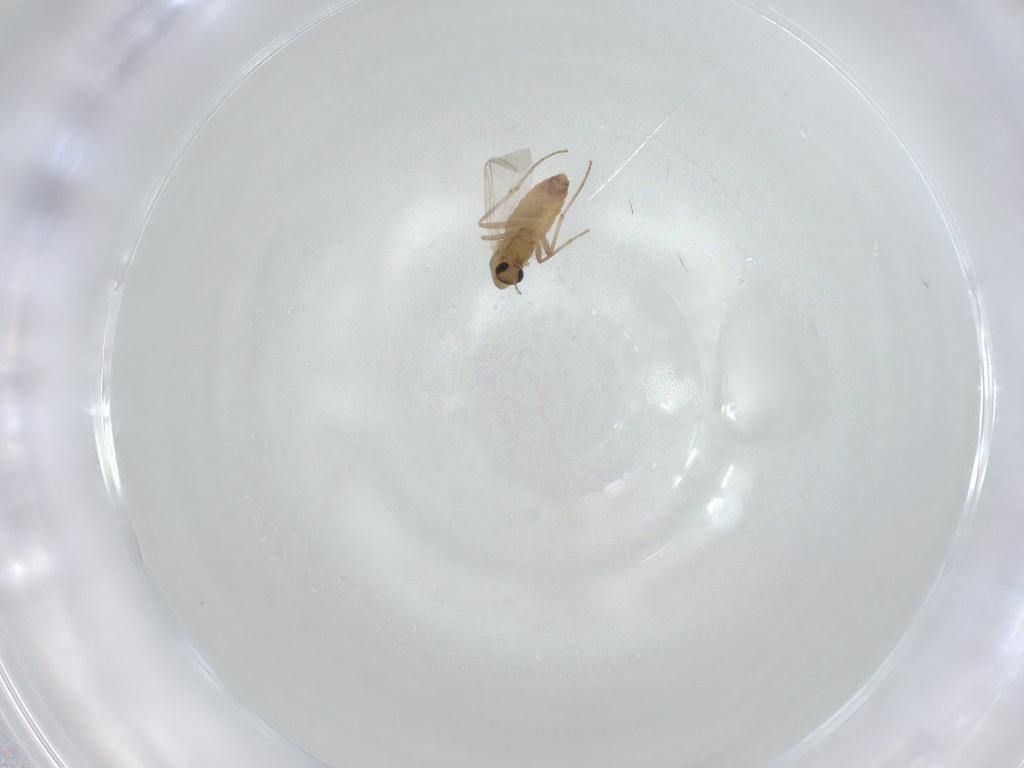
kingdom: Animalia
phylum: Arthropoda
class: Insecta
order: Diptera
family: Chironomidae
